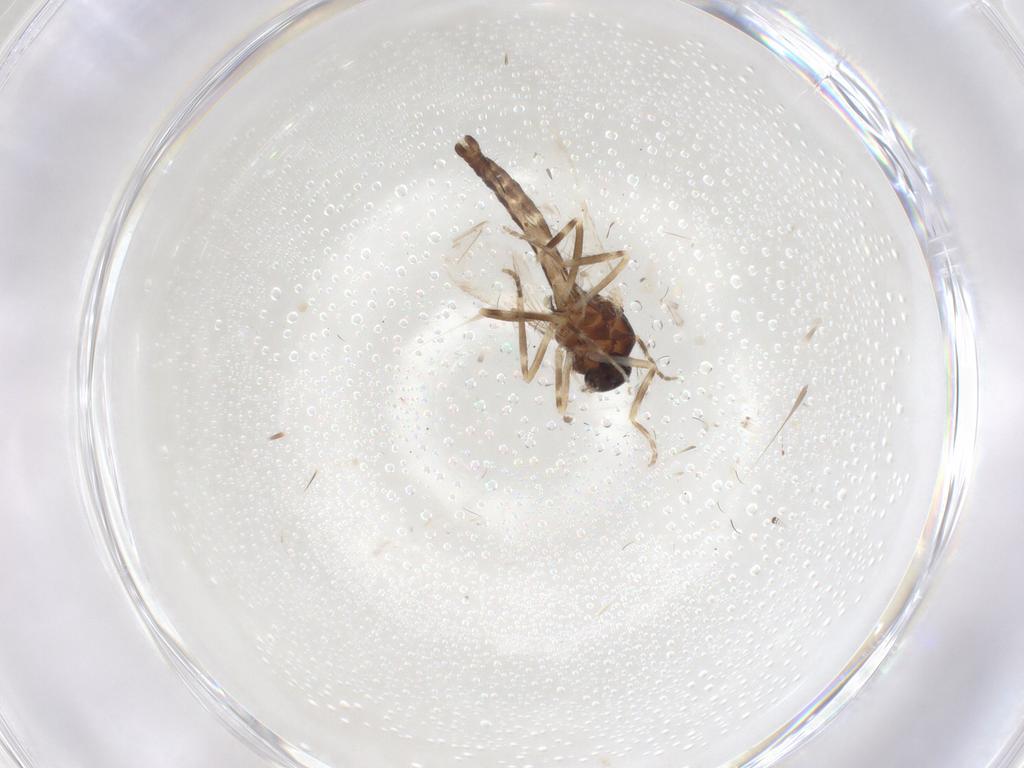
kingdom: Animalia
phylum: Arthropoda
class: Insecta
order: Diptera
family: Ceratopogonidae
